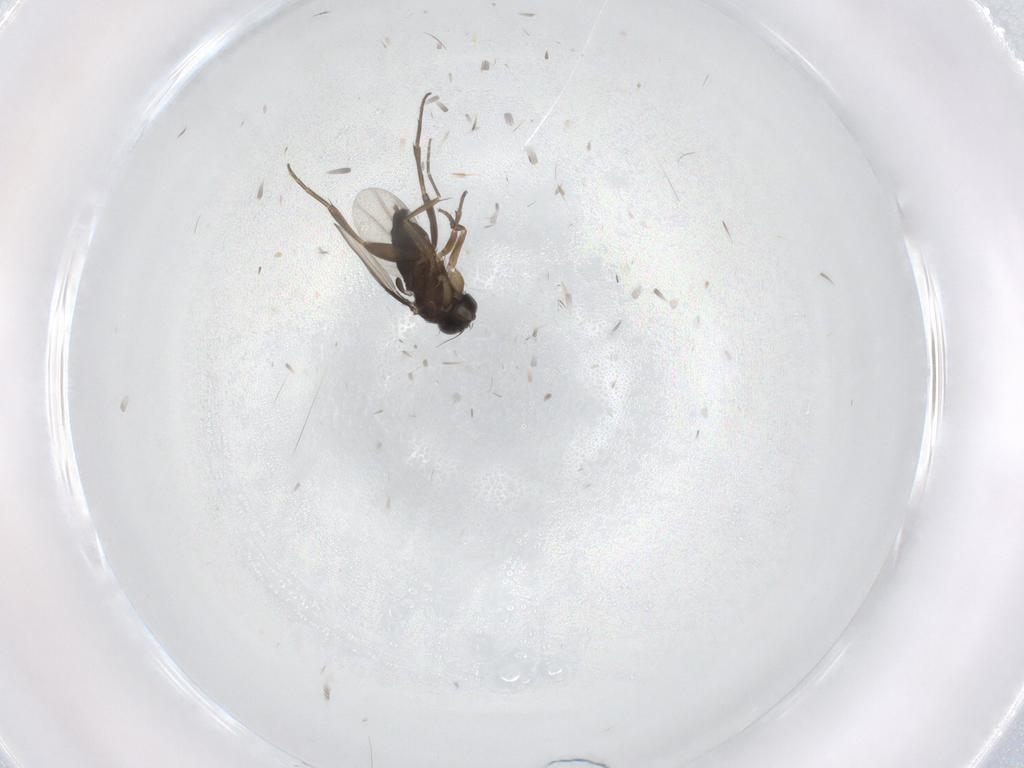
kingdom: Animalia
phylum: Arthropoda
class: Insecta
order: Diptera
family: Phoridae
